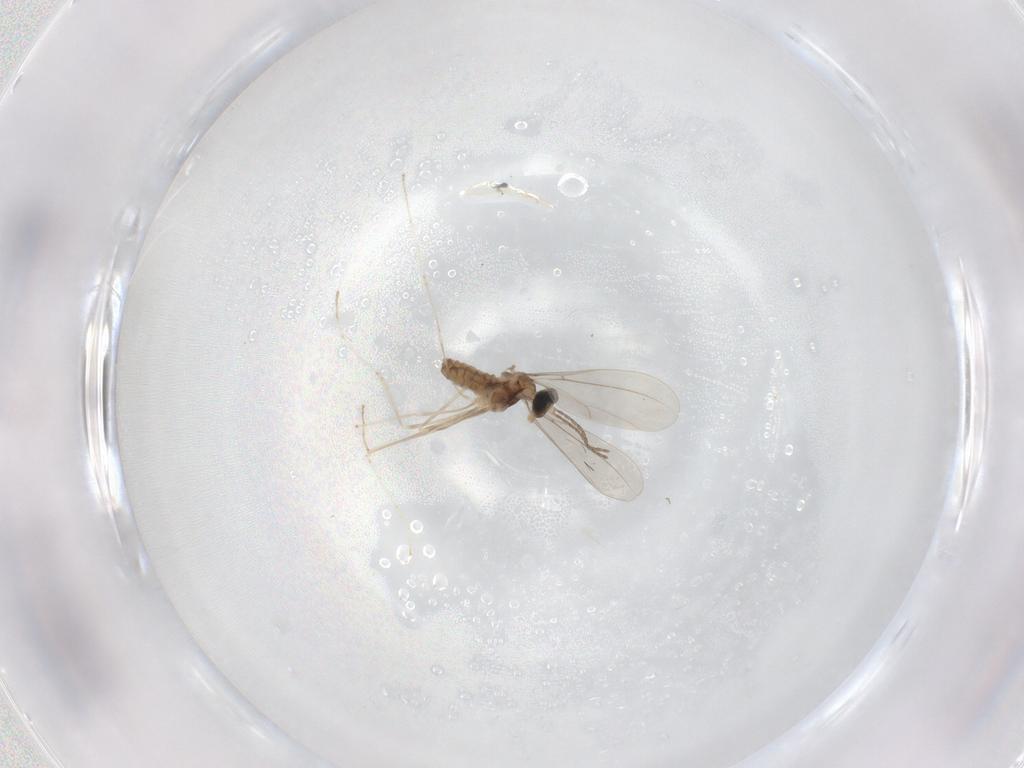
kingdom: Animalia
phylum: Arthropoda
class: Insecta
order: Diptera
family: Cecidomyiidae
